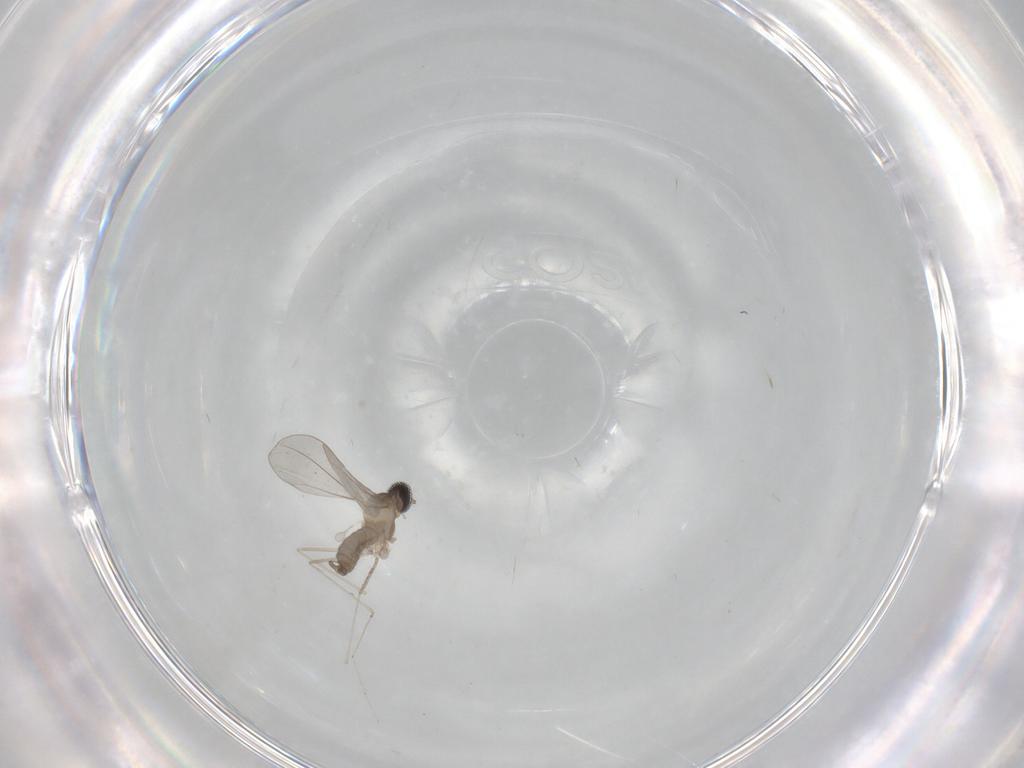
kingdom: Animalia
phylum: Arthropoda
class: Insecta
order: Diptera
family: Cecidomyiidae
